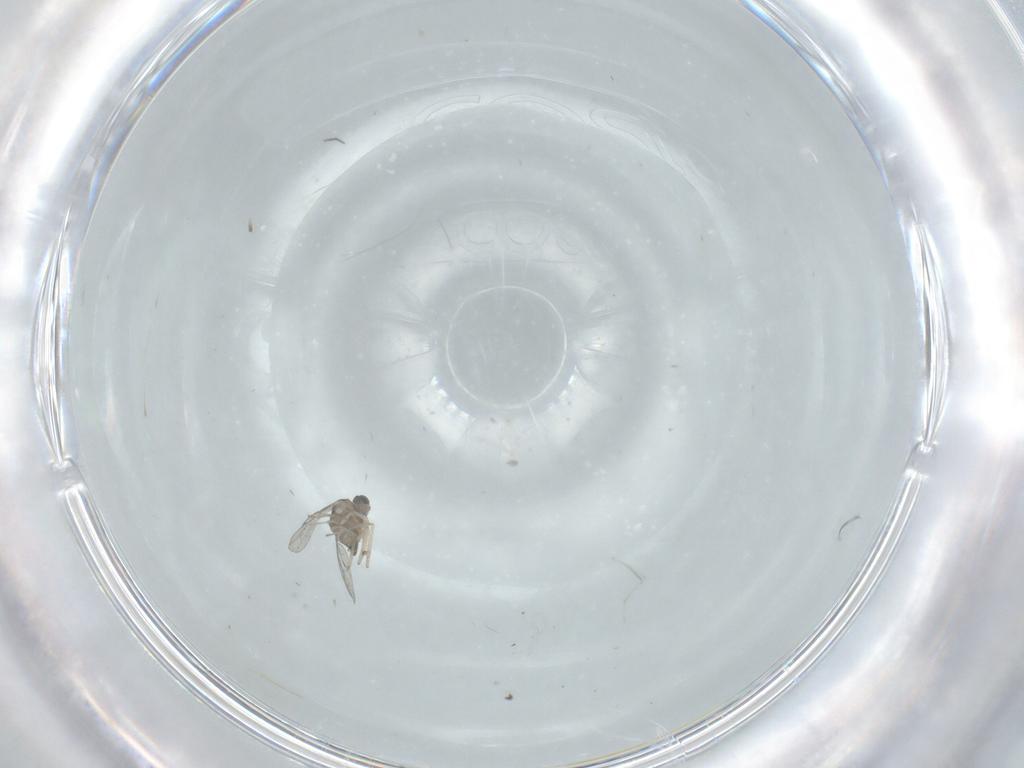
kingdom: Animalia
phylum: Arthropoda
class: Insecta
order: Diptera
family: Cecidomyiidae
